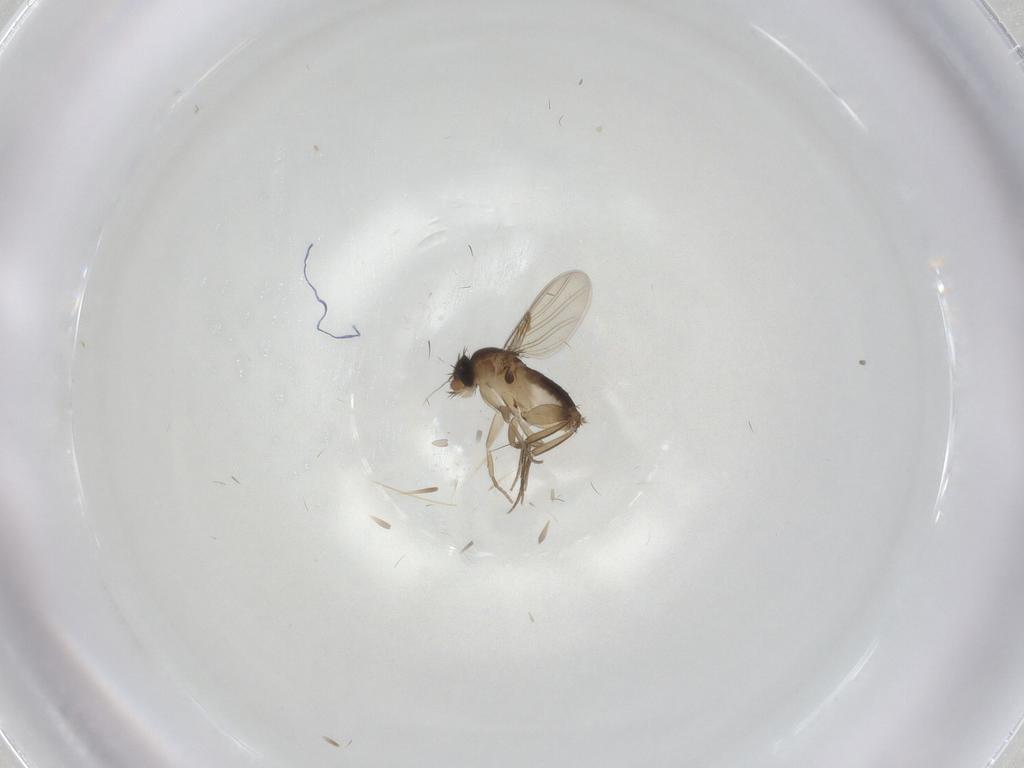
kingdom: Animalia
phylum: Arthropoda
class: Insecta
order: Diptera
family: Phoridae
